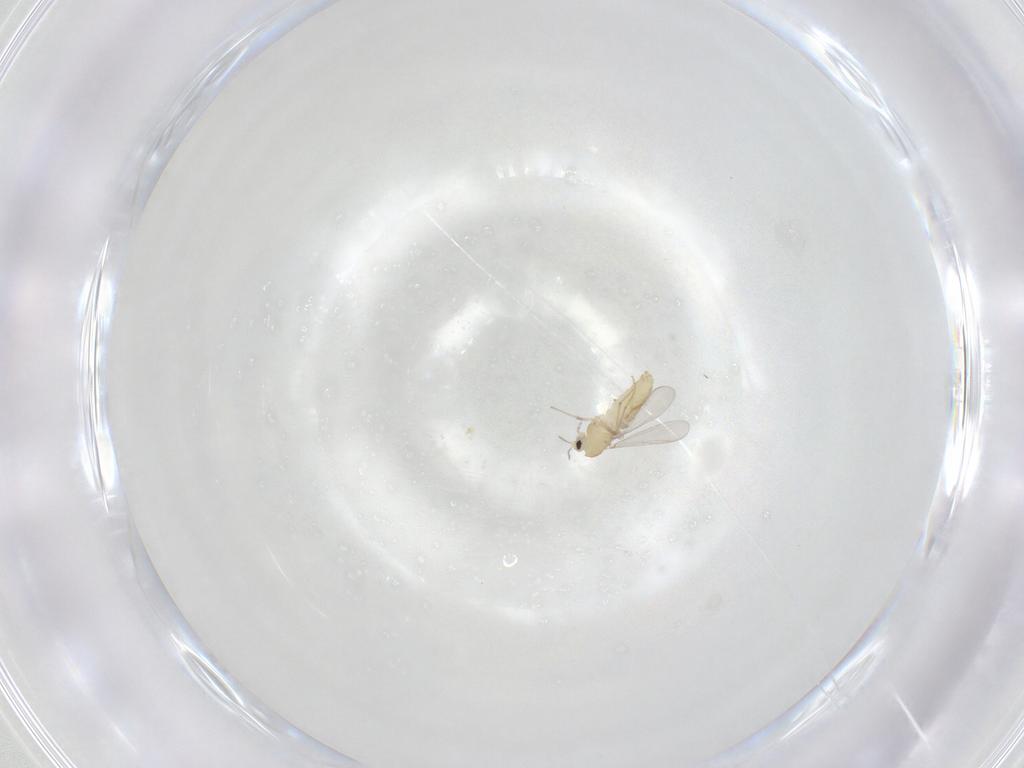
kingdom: Animalia
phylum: Arthropoda
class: Insecta
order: Diptera
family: Chironomidae
